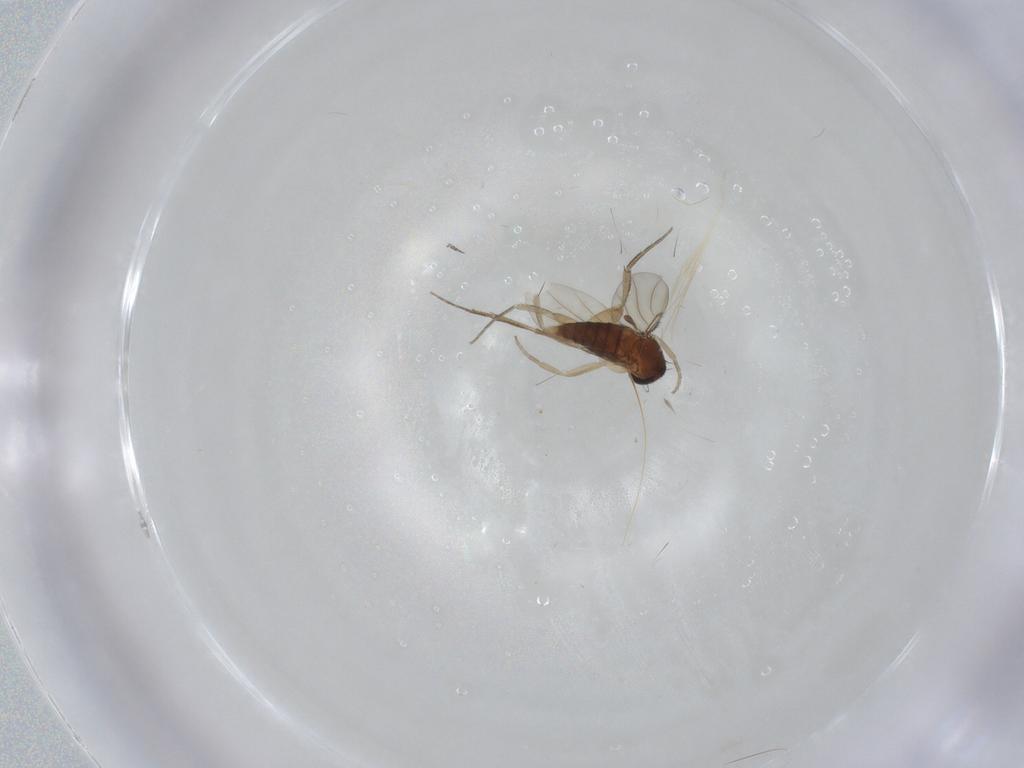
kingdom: Animalia
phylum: Arthropoda
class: Insecta
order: Diptera
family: Phoridae
